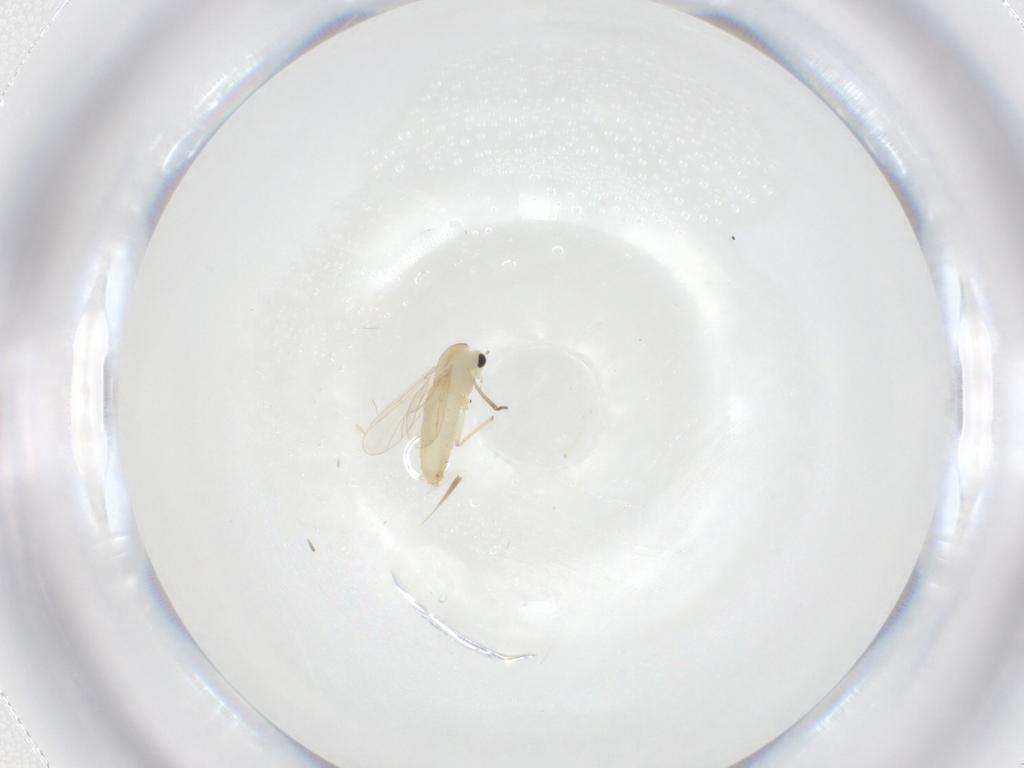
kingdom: Animalia
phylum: Arthropoda
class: Insecta
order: Diptera
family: Chironomidae
